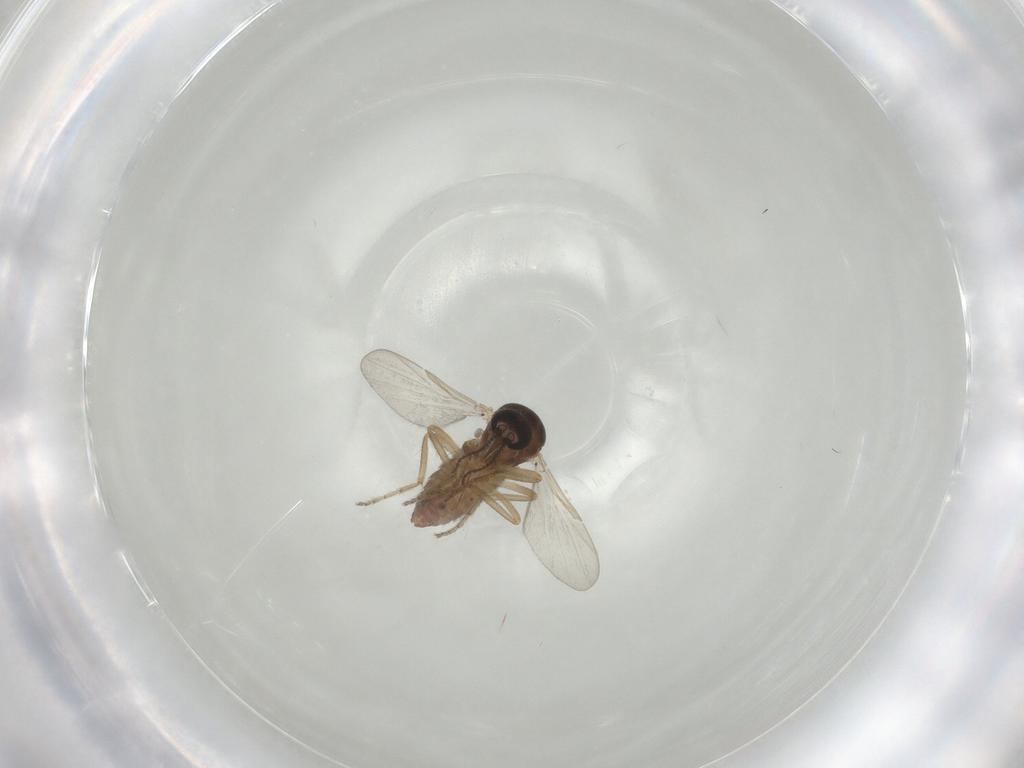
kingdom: Animalia
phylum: Arthropoda
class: Insecta
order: Diptera
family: Ceratopogonidae
